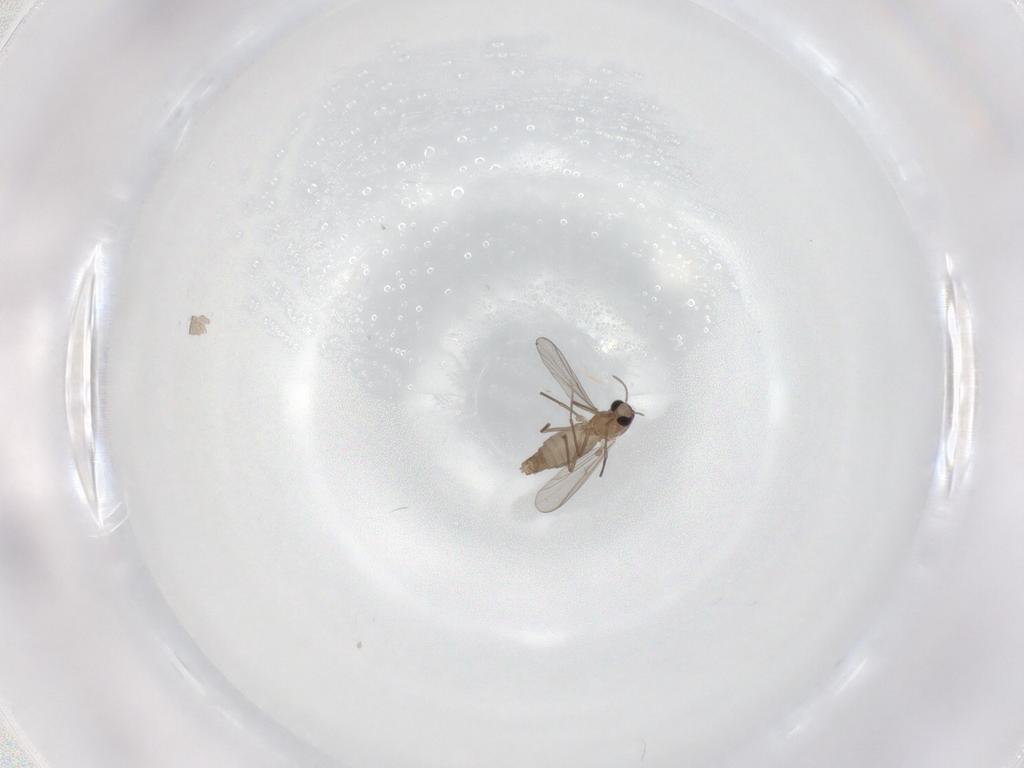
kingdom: Animalia
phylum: Arthropoda
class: Insecta
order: Diptera
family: Chironomidae
